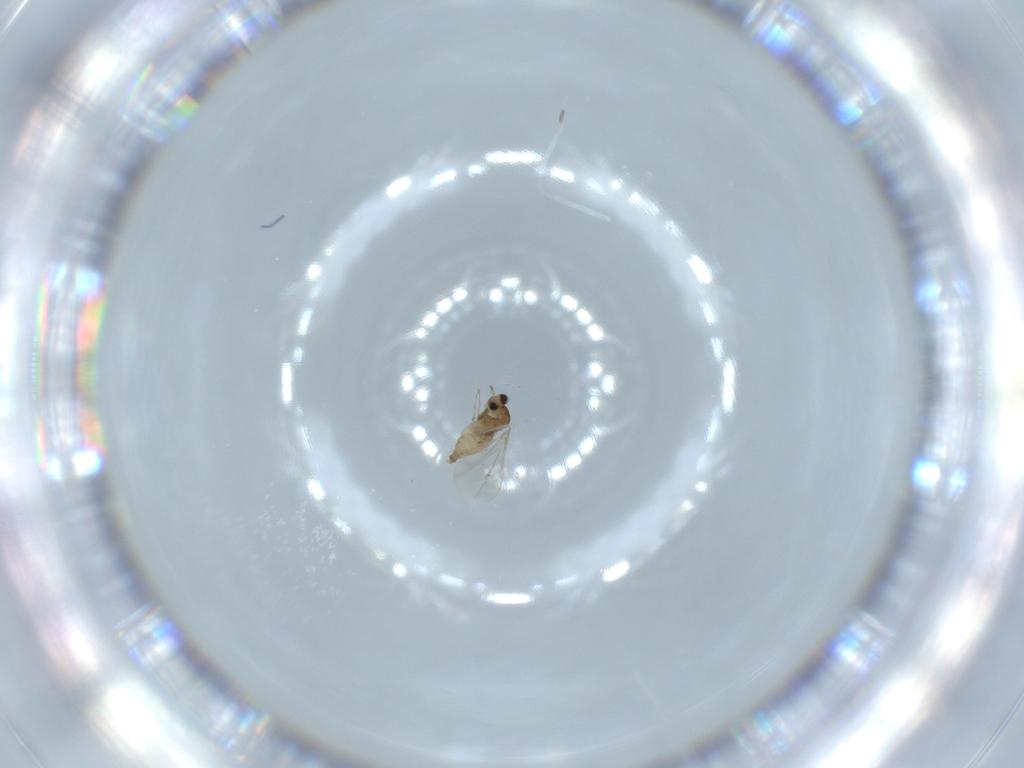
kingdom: Animalia
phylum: Arthropoda
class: Insecta
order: Diptera
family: Cecidomyiidae
